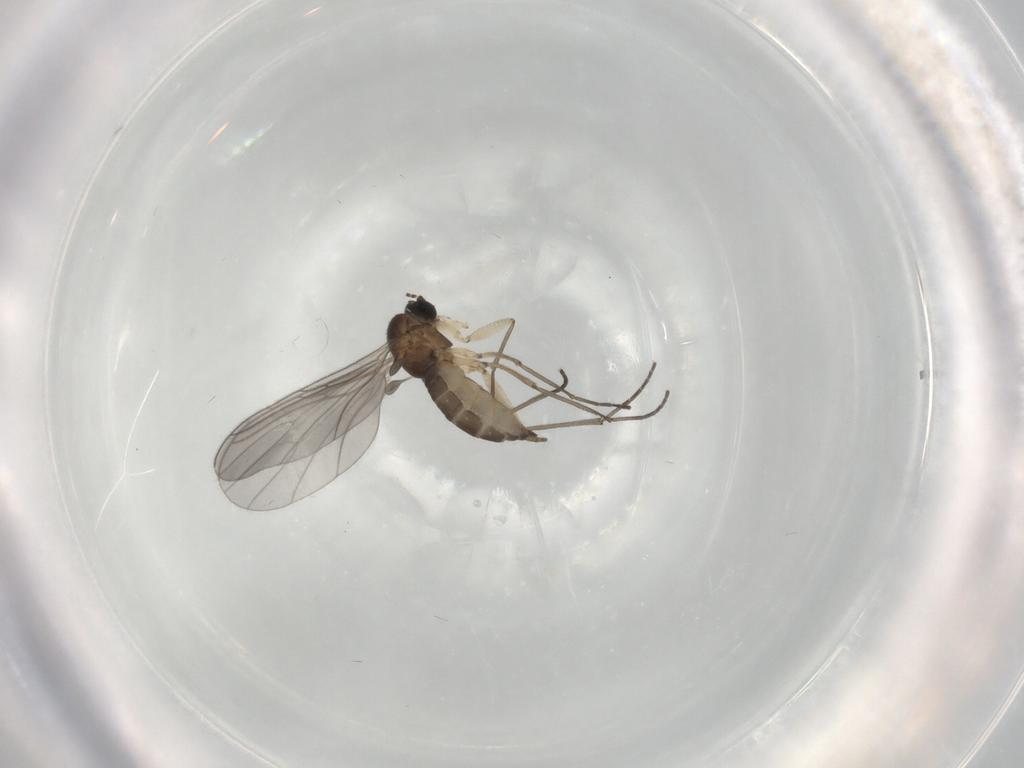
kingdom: Animalia
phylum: Arthropoda
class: Insecta
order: Diptera
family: Sciaridae
